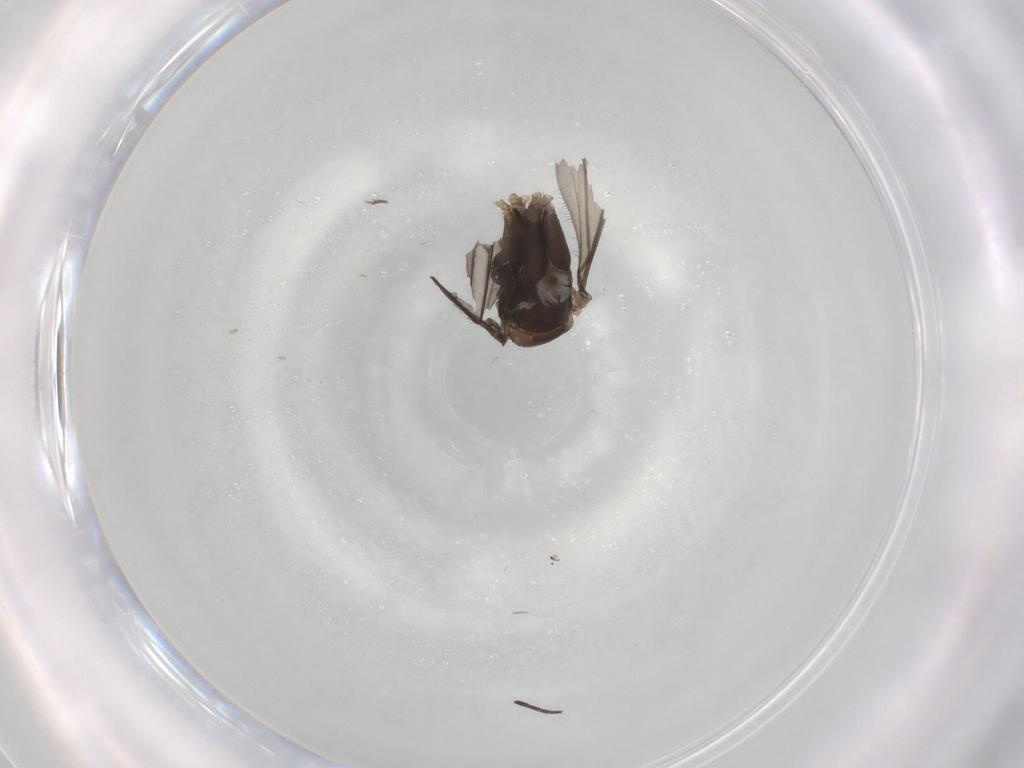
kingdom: Animalia
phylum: Arthropoda
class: Insecta
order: Diptera
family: Keroplatidae
